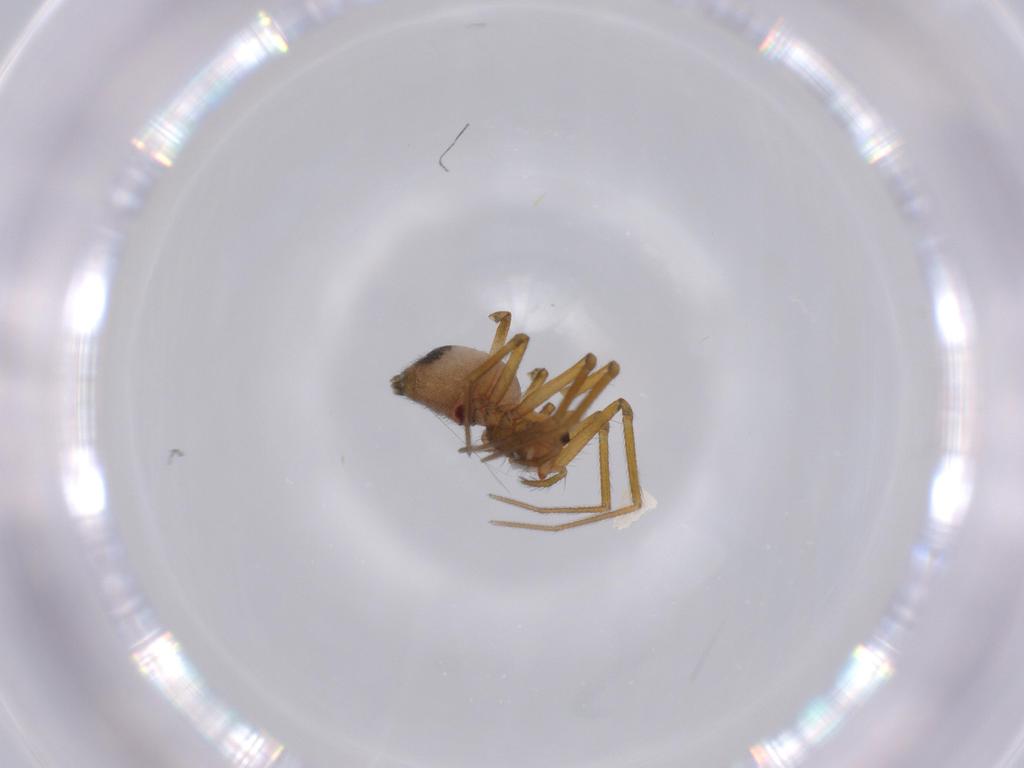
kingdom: Animalia
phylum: Arthropoda
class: Arachnida
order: Araneae
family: Linyphiidae
